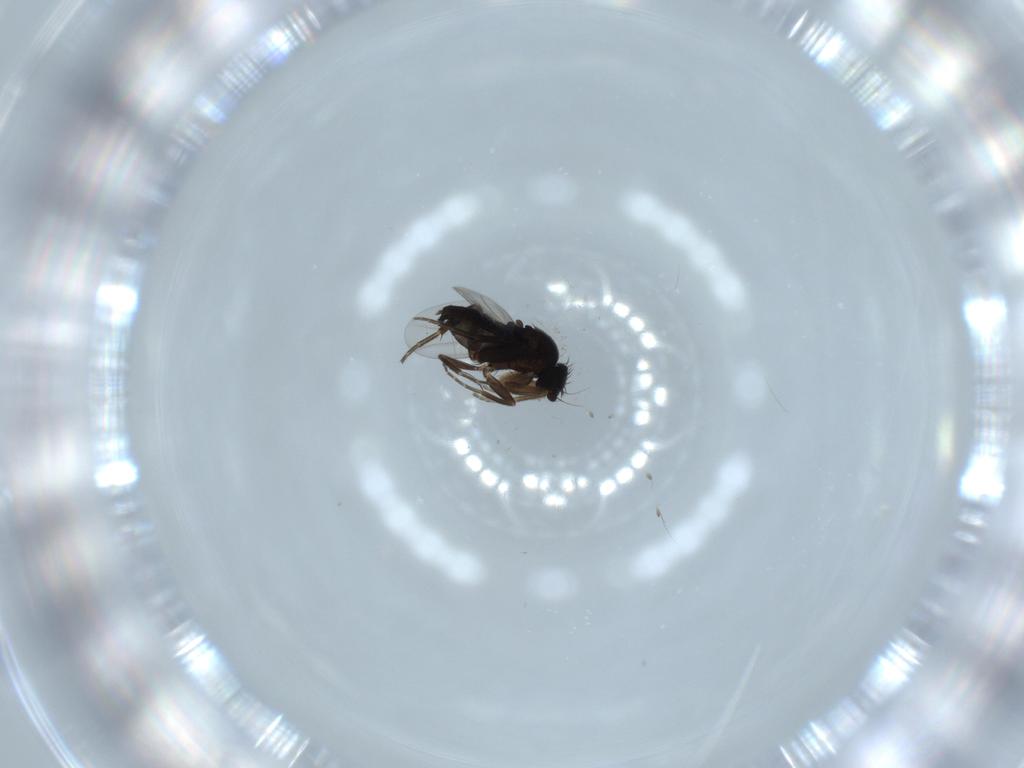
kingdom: Animalia
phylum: Arthropoda
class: Insecta
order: Diptera
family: Phoridae
